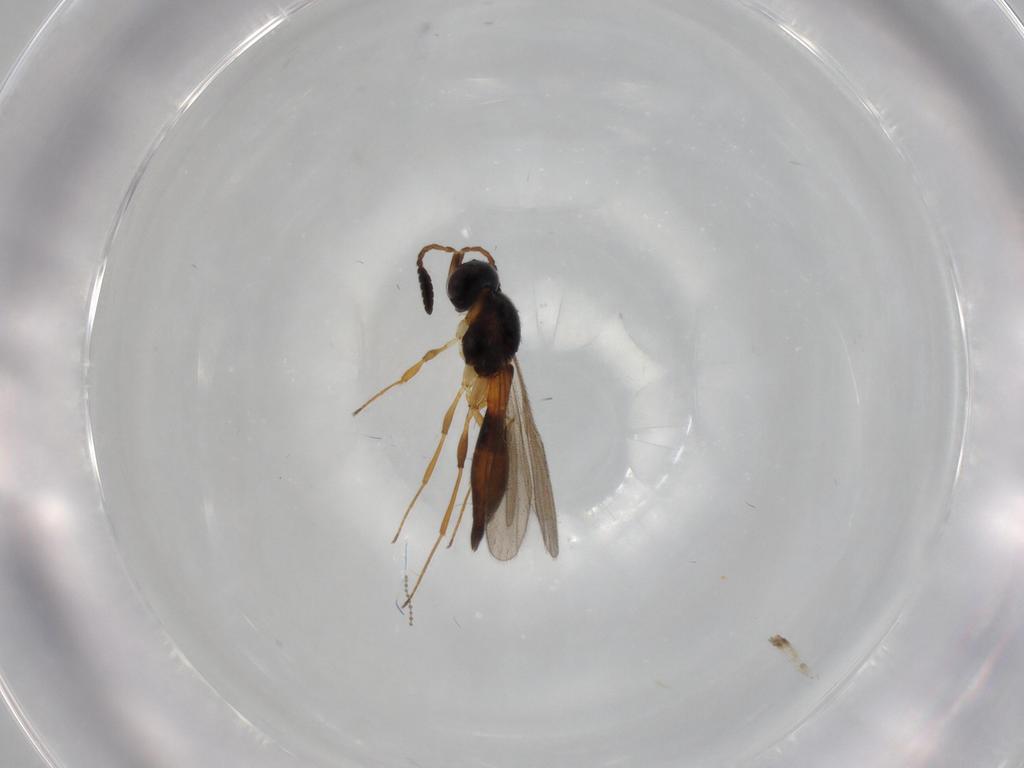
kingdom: Animalia
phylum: Arthropoda
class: Insecta
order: Hymenoptera
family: Scelionidae
